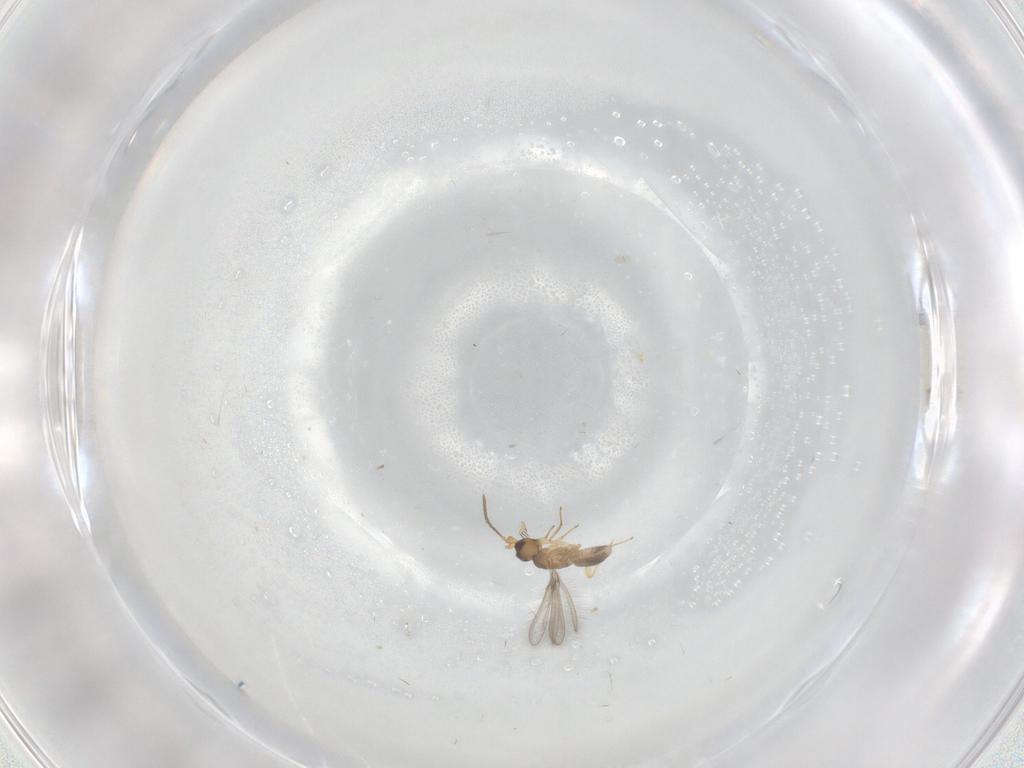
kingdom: Animalia
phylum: Arthropoda
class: Insecta
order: Hymenoptera
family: Mymaridae
